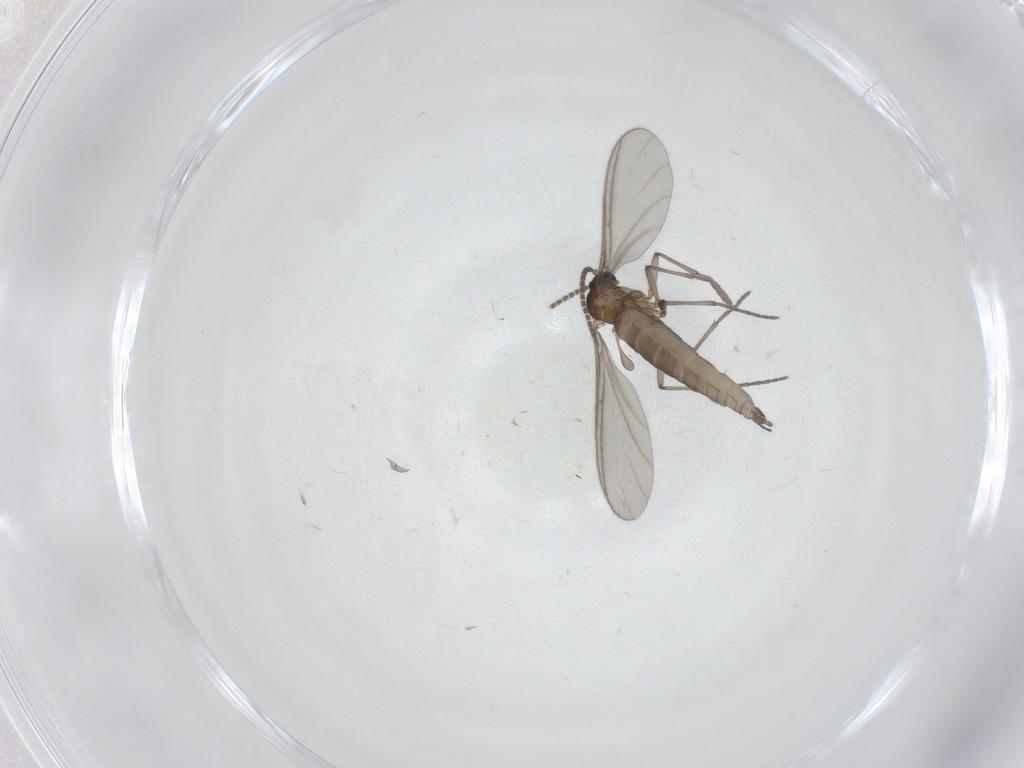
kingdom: Animalia
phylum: Arthropoda
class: Insecta
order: Diptera
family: Sciaridae
